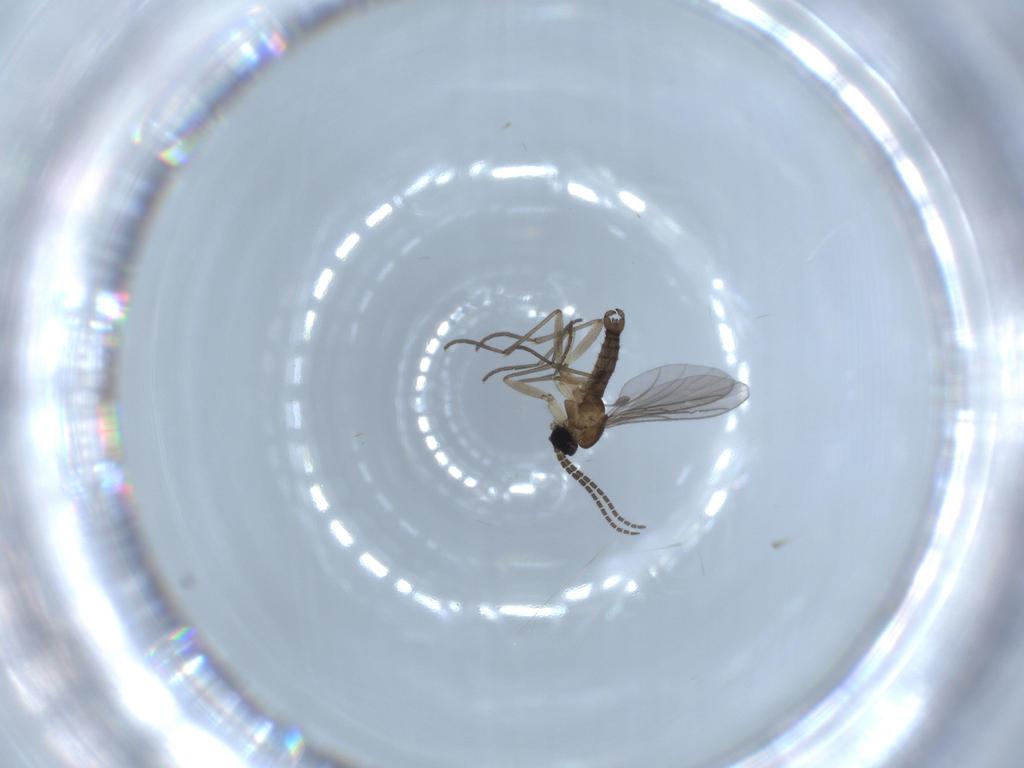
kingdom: Animalia
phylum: Arthropoda
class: Insecta
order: Diptera
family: Sciaridae
